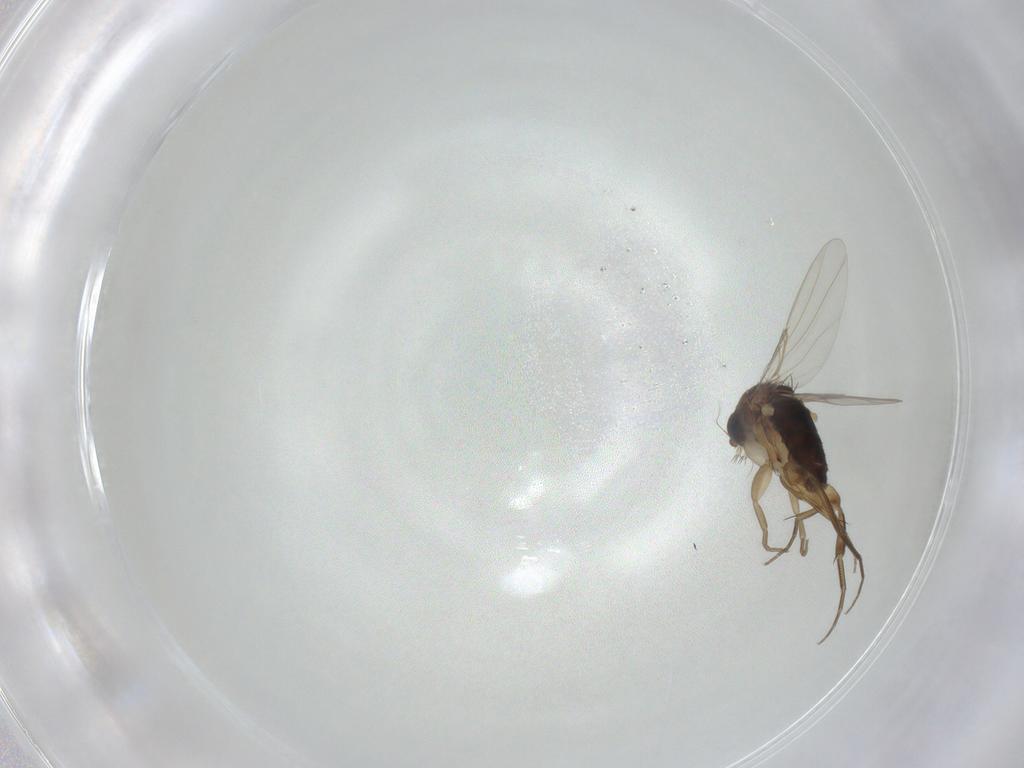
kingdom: Animalia
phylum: Arthropoda
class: Insecta
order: Diptera
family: Phoridae
